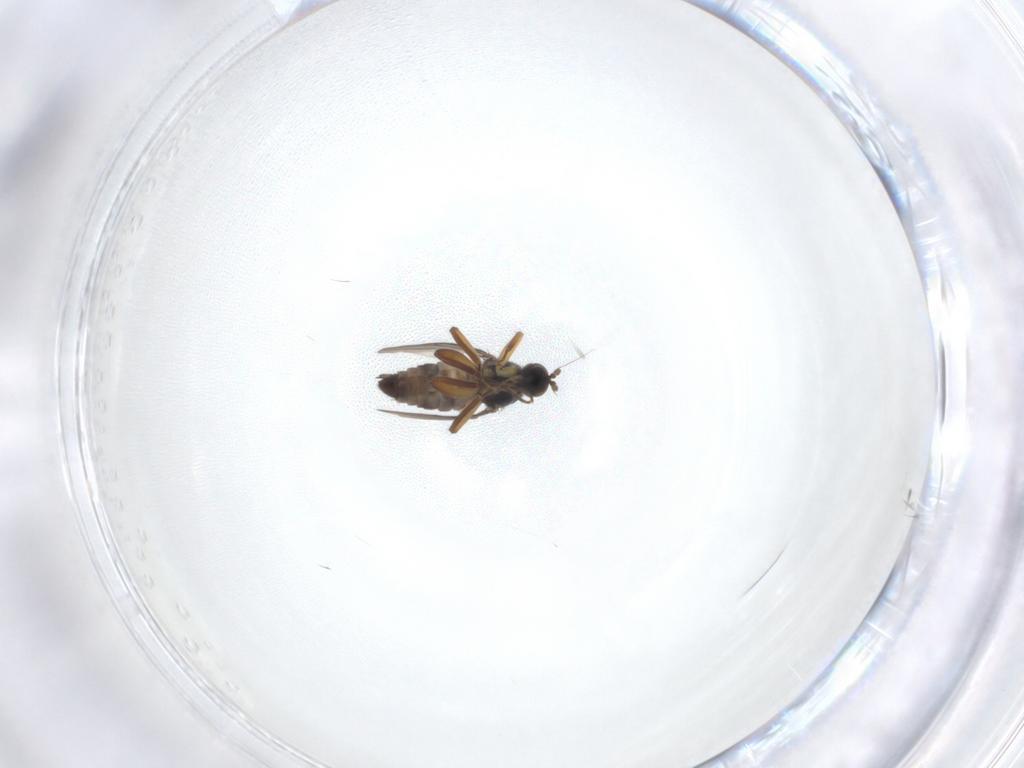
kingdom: Animalia
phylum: Arthropoda
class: Insecta
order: Diptera
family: Hybotidae
